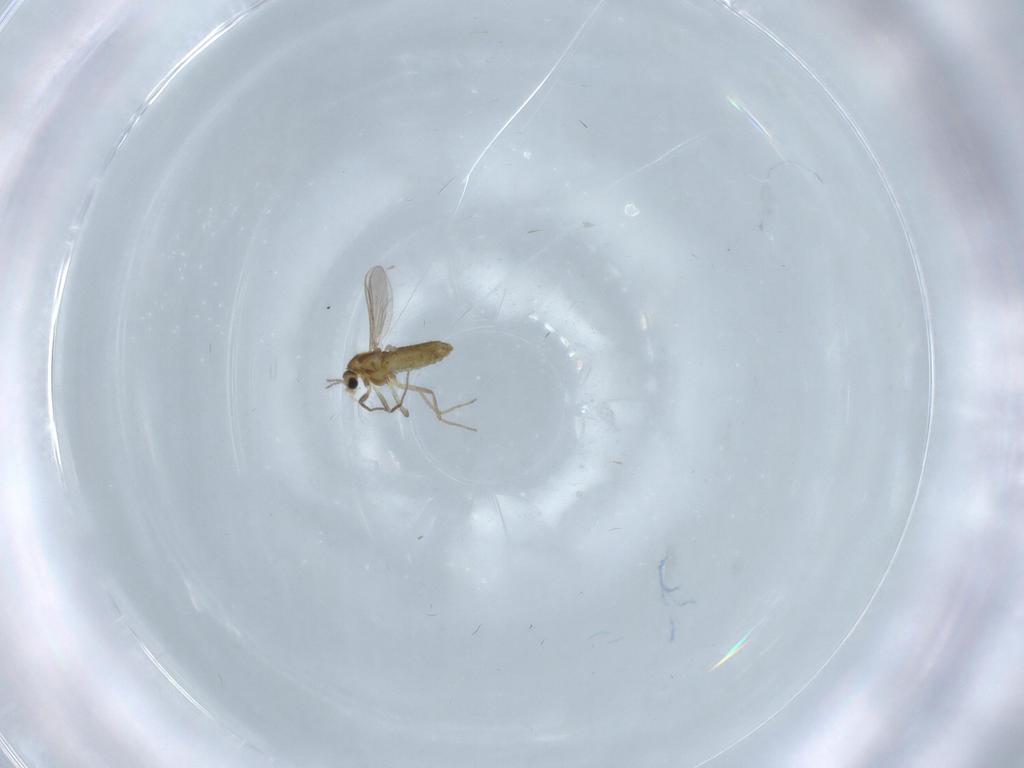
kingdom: Animalia
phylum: Arthropoda
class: Insecta
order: Diptera
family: Chironomidae
